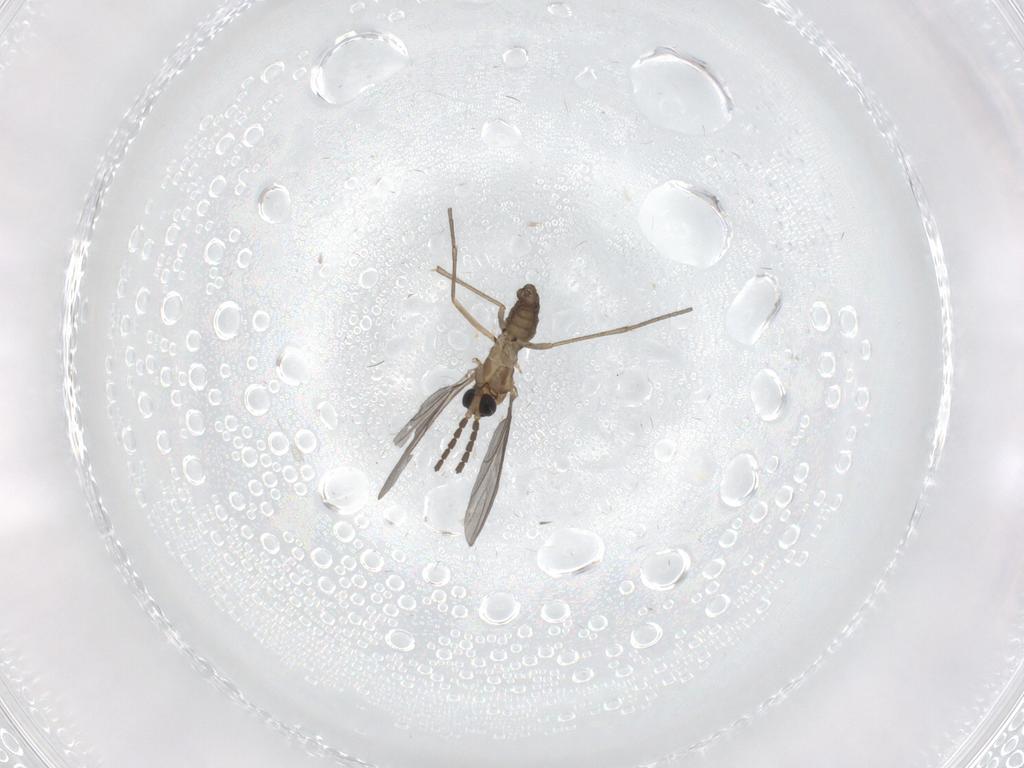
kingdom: Animalia
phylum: Arthropoda
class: Insecta
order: Diptera
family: Sciaridae
